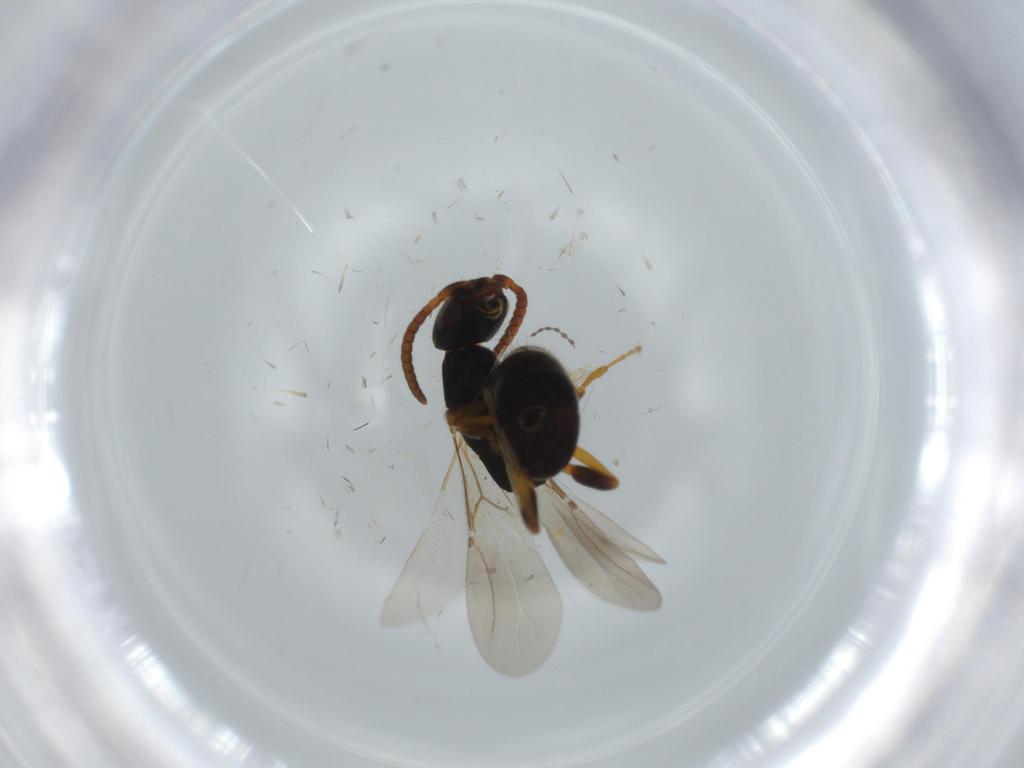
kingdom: Animalia
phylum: Arthropoda
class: Insecta
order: Hymenoptera
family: Bethylidae
